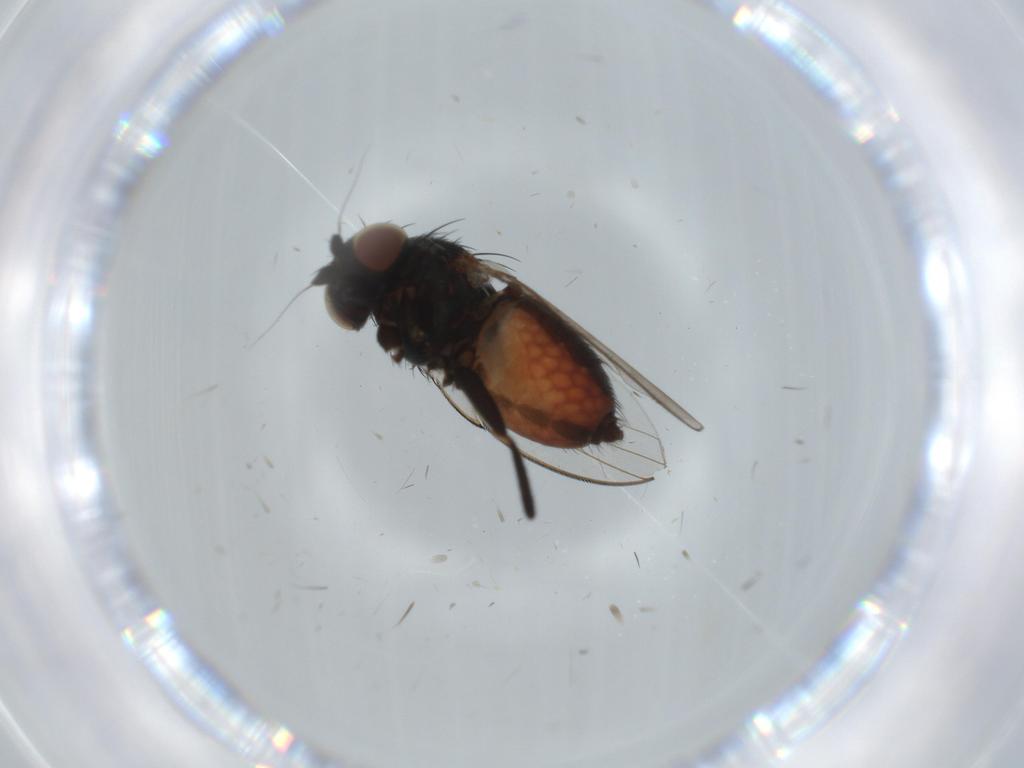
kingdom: Animalia
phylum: Arthropoda
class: Insecta
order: Diptera
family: Milichiidae
